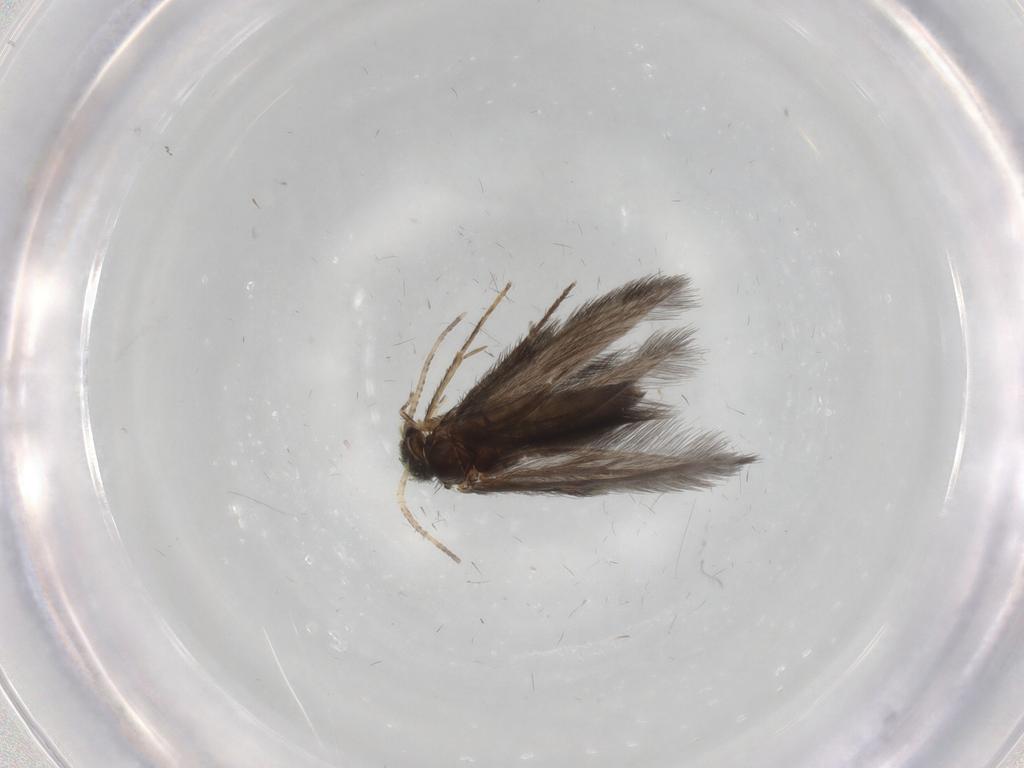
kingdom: Animalia
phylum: Arthropoda
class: Insecta
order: Trichoptera
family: Hydroptilidae
